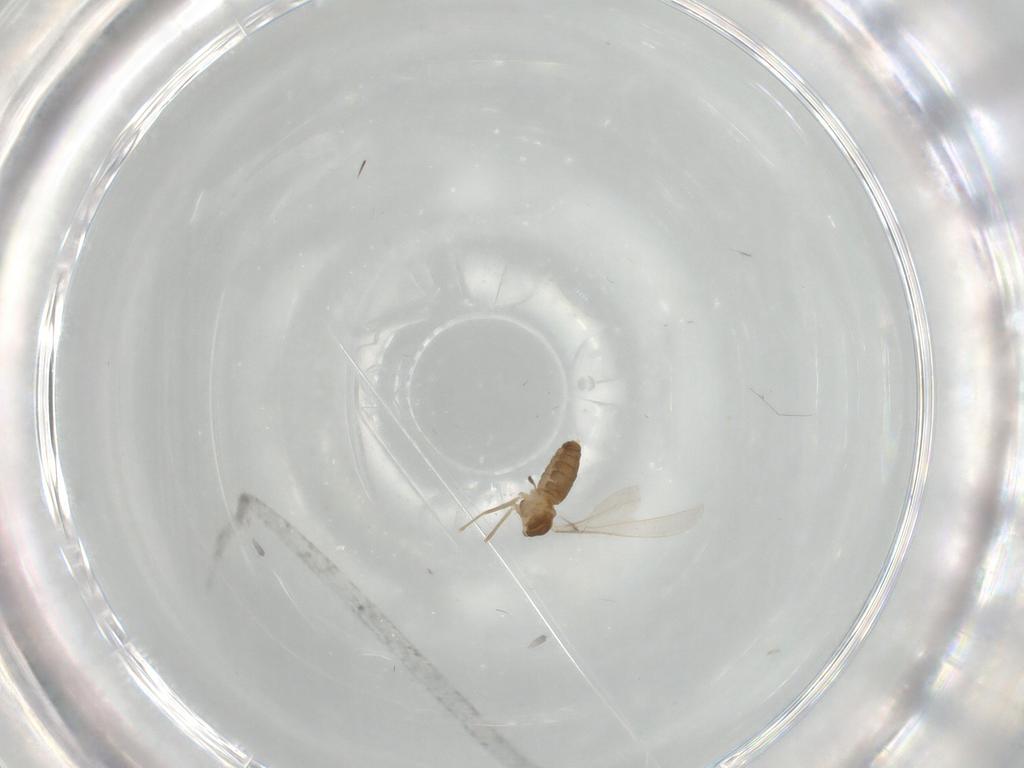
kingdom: Animalia
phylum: Arthropoda
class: Insecta
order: Diptera
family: Cecidomyiidae
